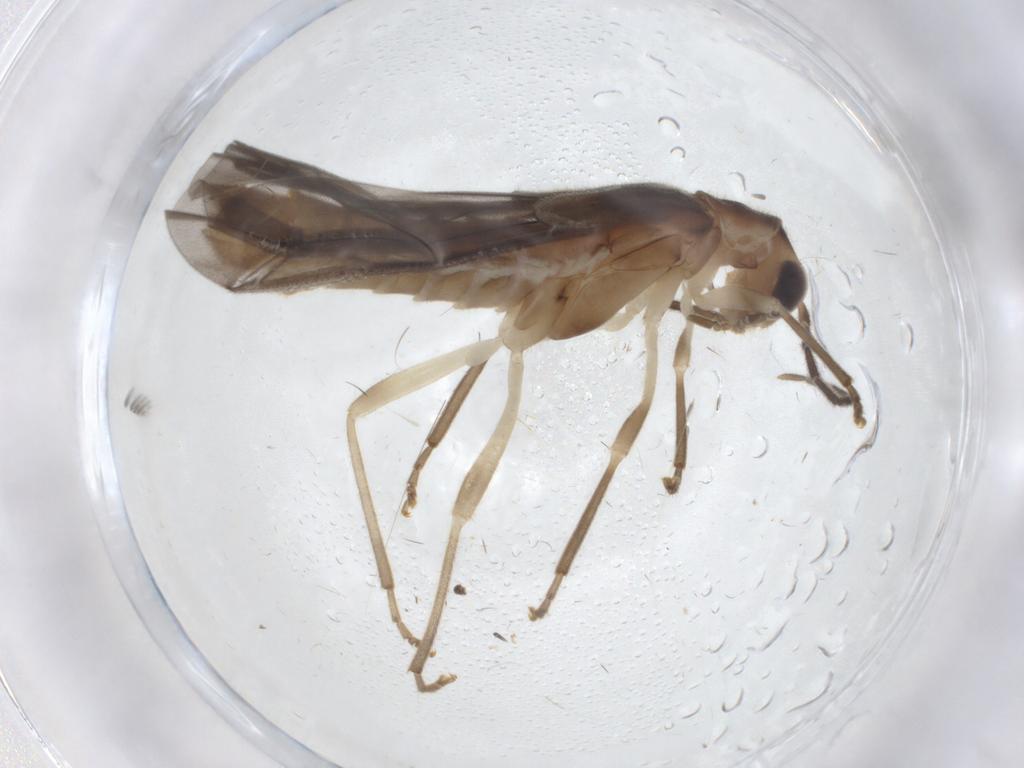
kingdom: Animalia
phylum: Arthropoda
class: Insecta
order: Coleoptera
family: Cantharidae
